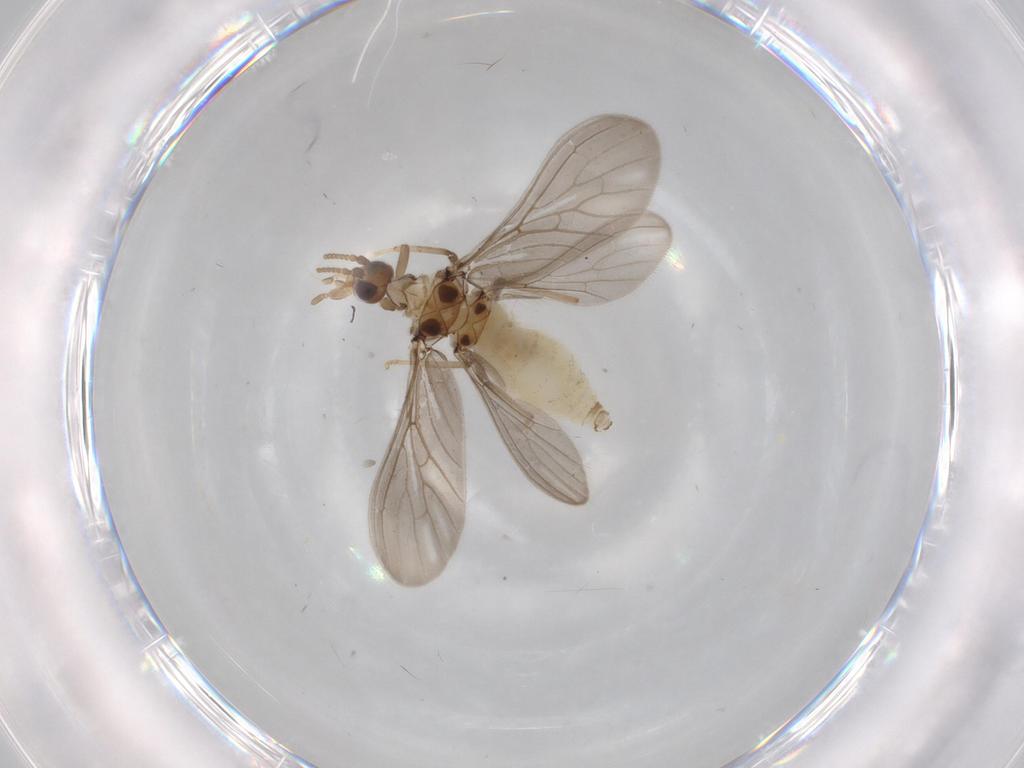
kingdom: Animalia
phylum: Arthropoda
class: Insecta
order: Neuroptera
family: Coniopterygidae
